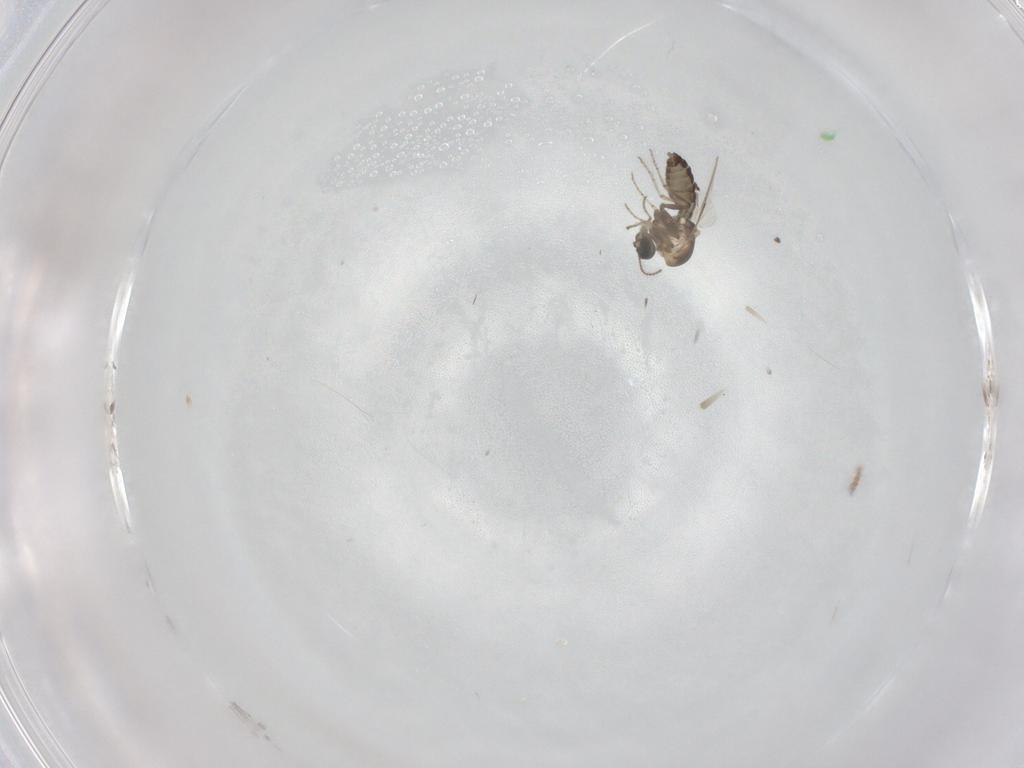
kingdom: Animalia
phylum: Arthropoda
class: Insecta
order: Diptera
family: Ceratopogonidae
